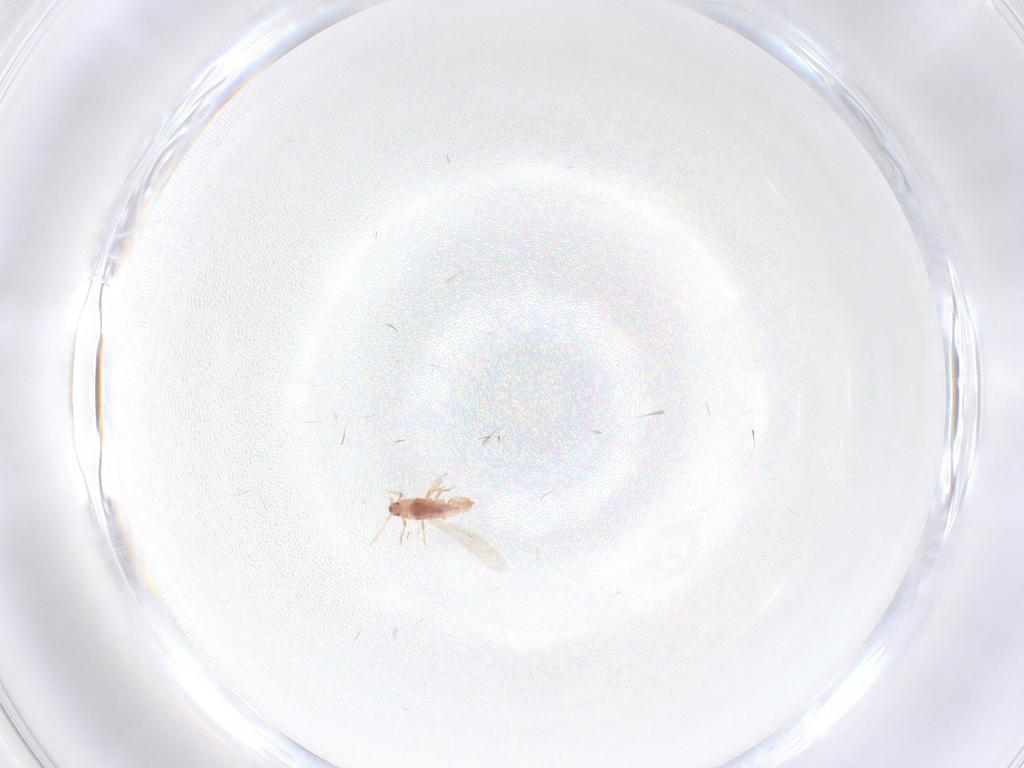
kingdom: Animalia
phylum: Arthropoda
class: Insecta
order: Hemiptera
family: Pseudococcidae
